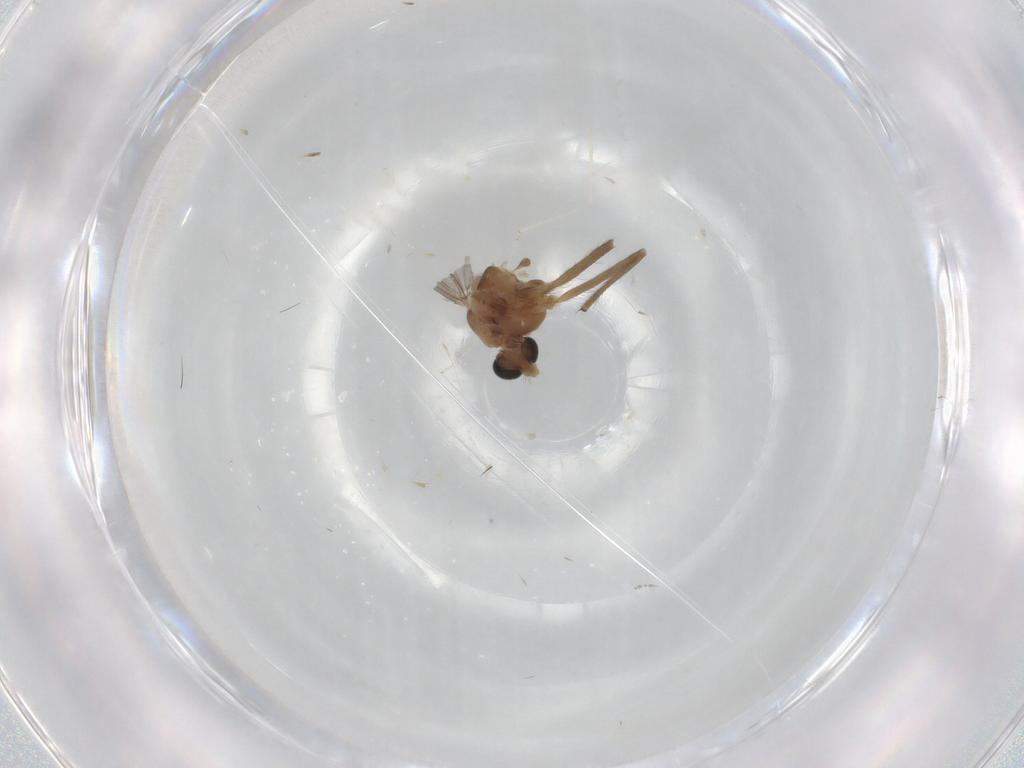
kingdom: Animalia
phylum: Arthropoda
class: Insecta
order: Diptera
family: Chironomidae
